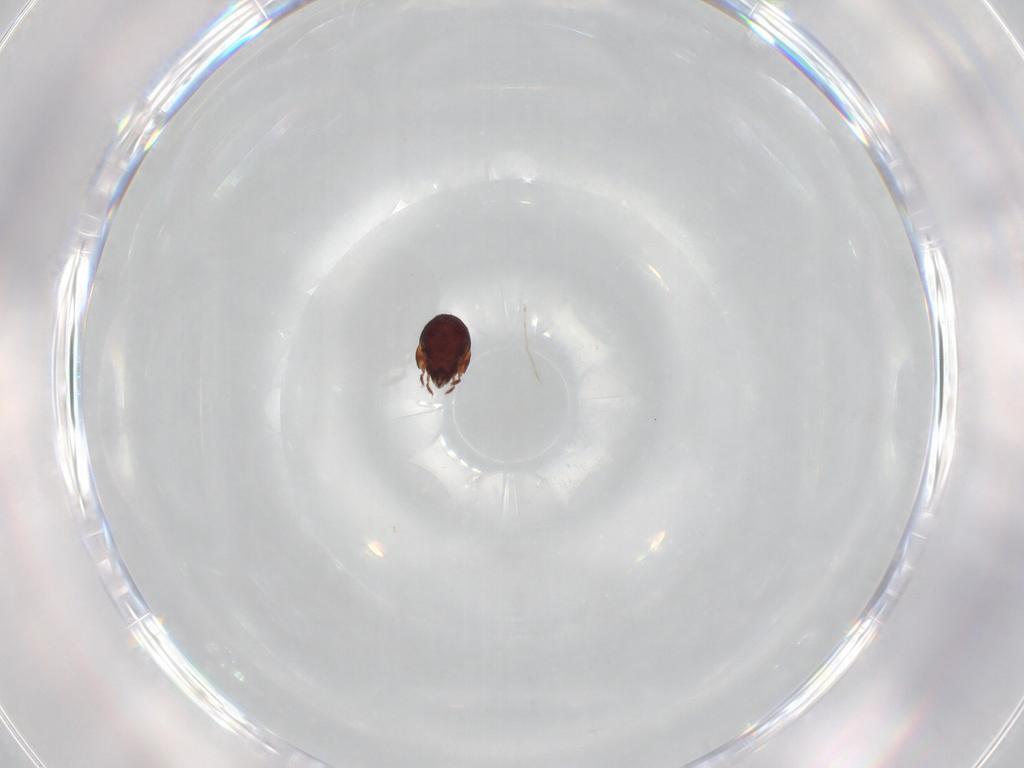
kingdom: Animalia
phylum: Arthropoda
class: Arachnida
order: Sarcoptiformes
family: Humerobatidae
